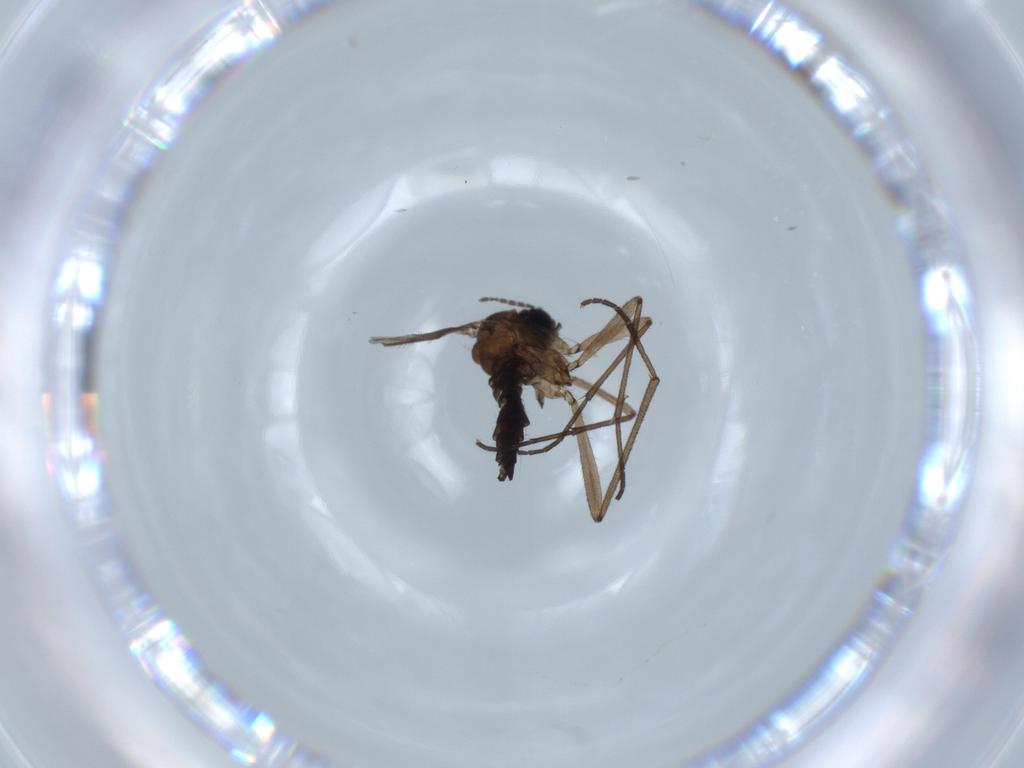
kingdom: Animalia
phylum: Arthropoda
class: Insecta
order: Diptera
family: Sciaridae
